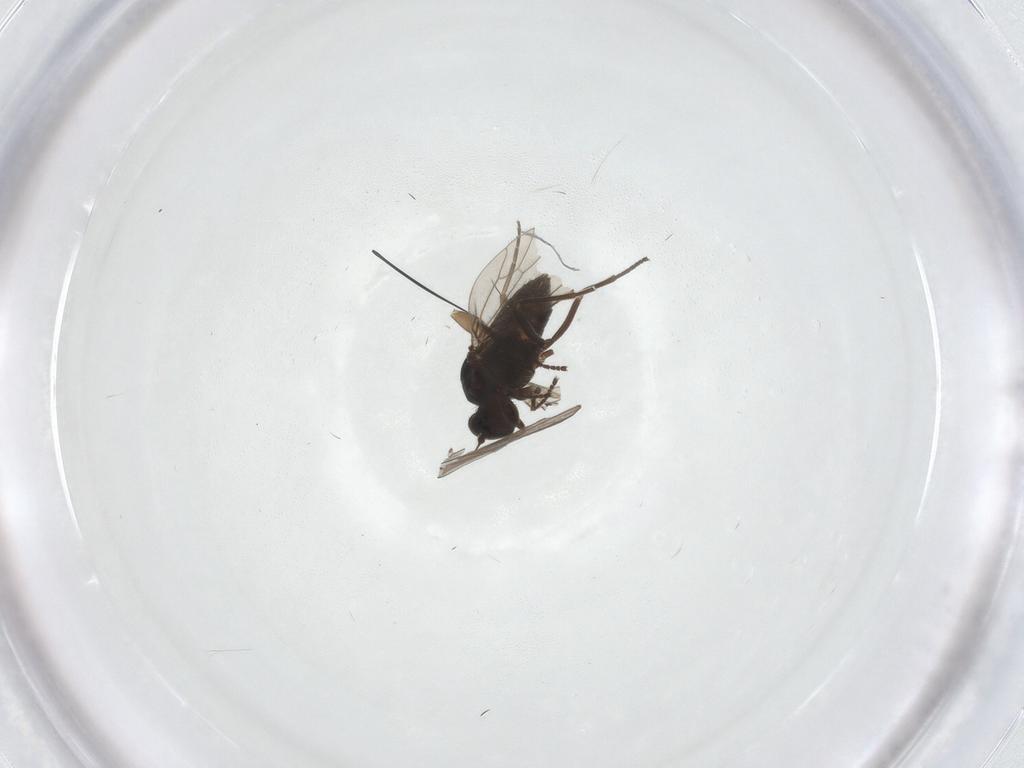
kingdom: Animalia
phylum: Arthropoda
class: Insecta
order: Diptera
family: Dolichopodidae
